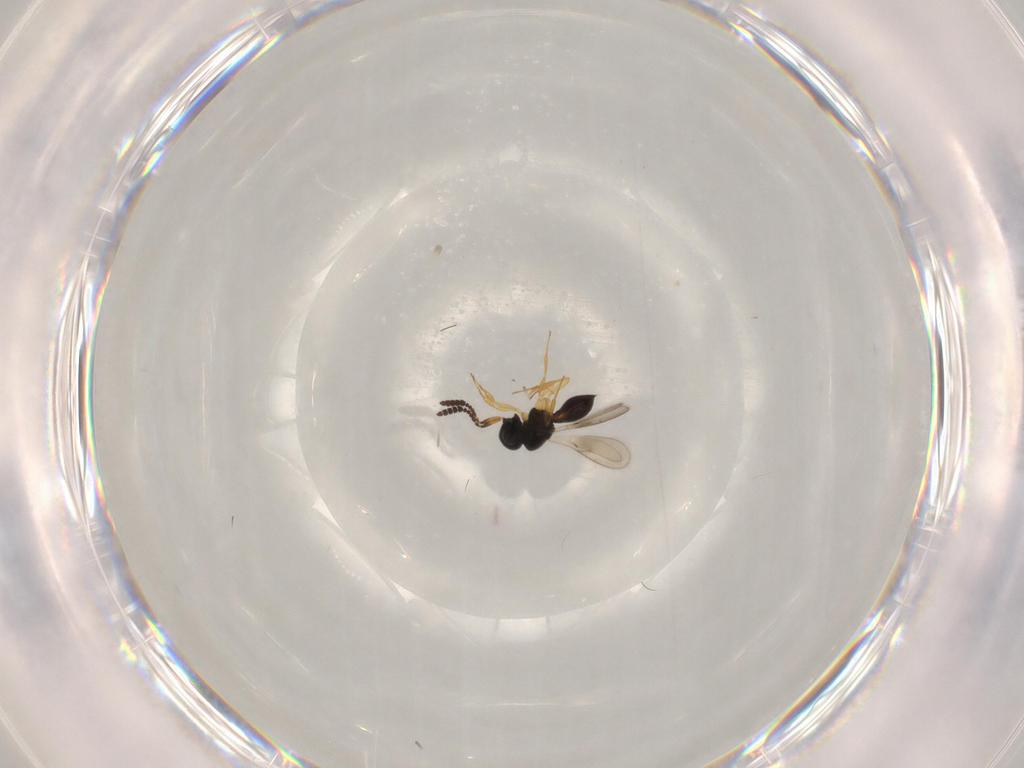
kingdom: Animalia
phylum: Arthropoda
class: Insecta
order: Hymenoptera
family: Scelionidae
